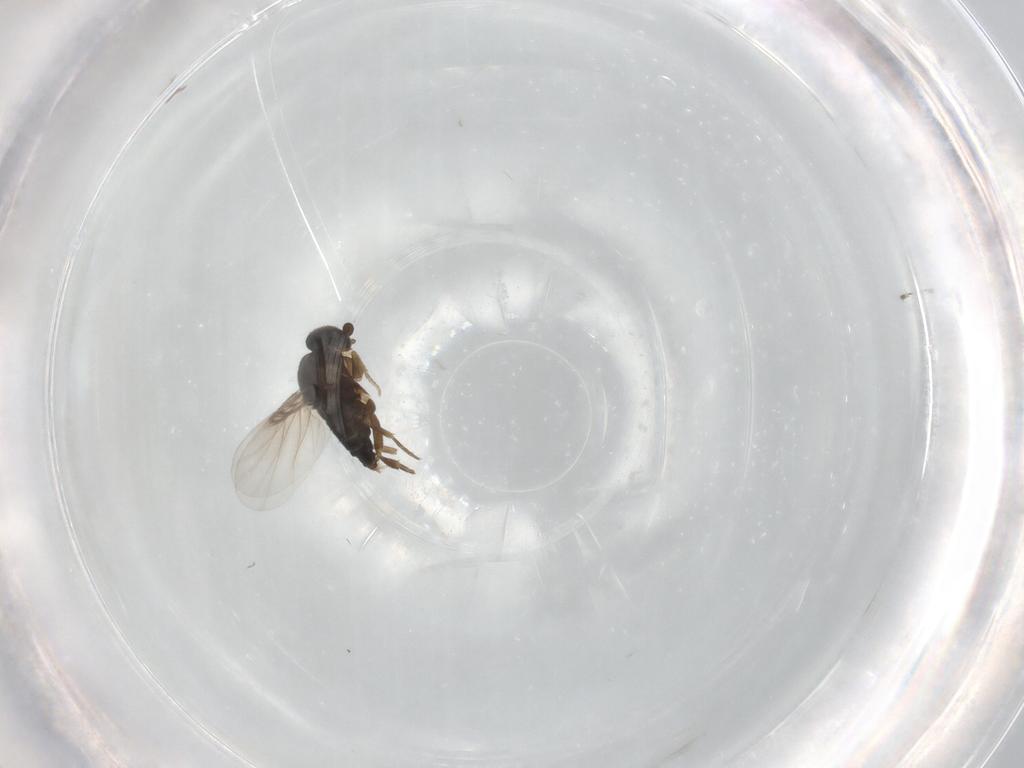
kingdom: Animalia
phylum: Arthropoda
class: Insecta
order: Diptera
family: Phoridae
